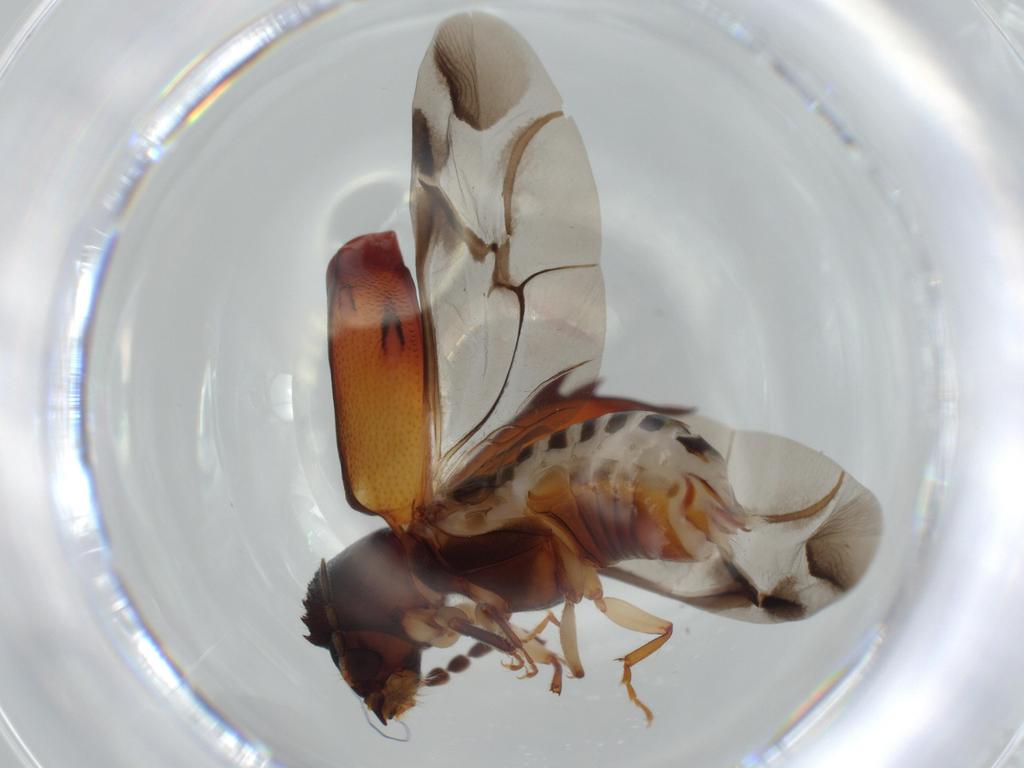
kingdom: Animalia
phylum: Arthropoda
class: Insecta
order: Coleoptera
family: Bostrichidae
